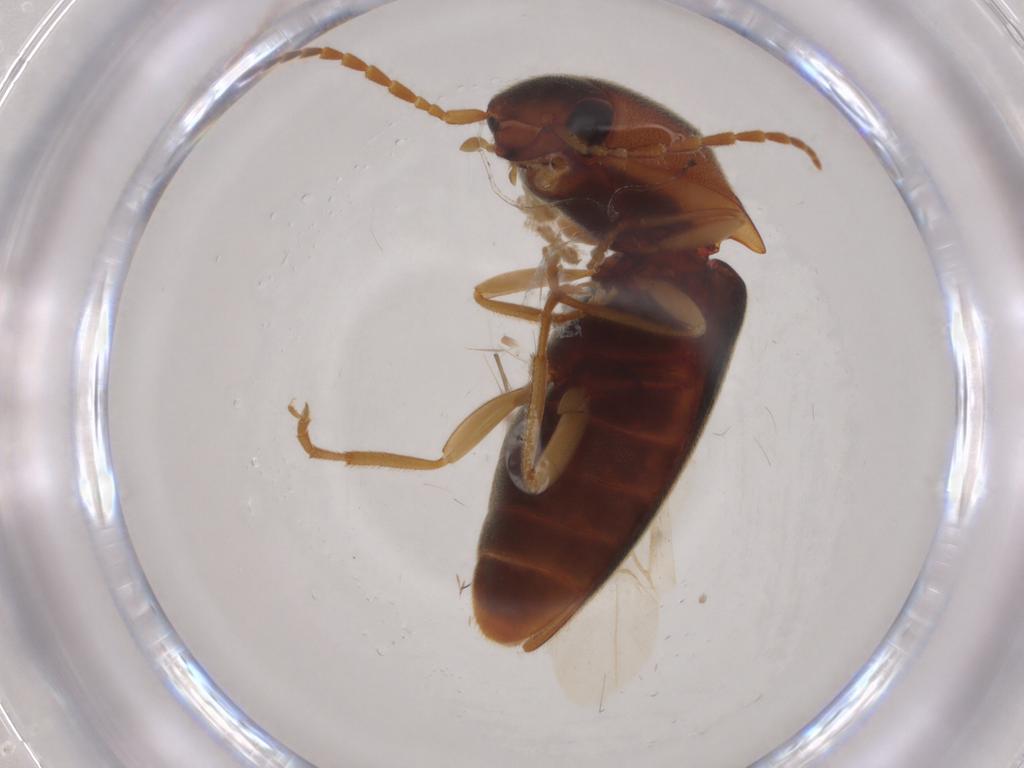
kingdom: Animalia
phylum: Arthropoda
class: Insecta
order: Coleoptera
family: Ptilodactylidae
